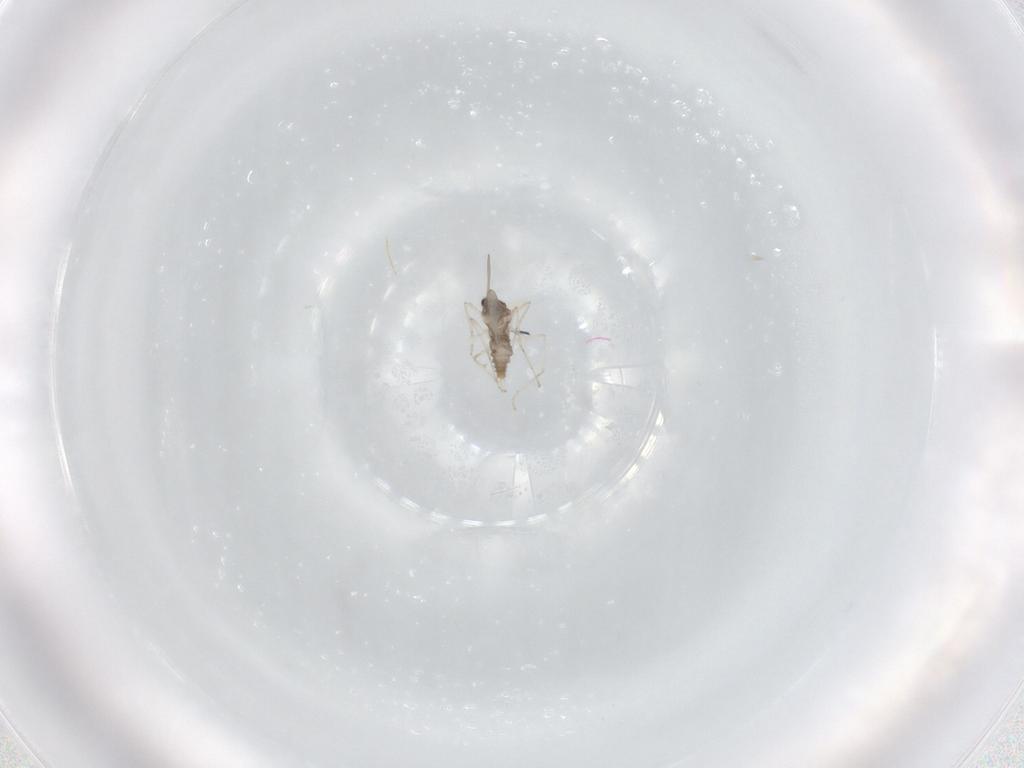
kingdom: Animalia
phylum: Arthropoda
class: Insecta
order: Diptera
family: Cecidomyiidae
